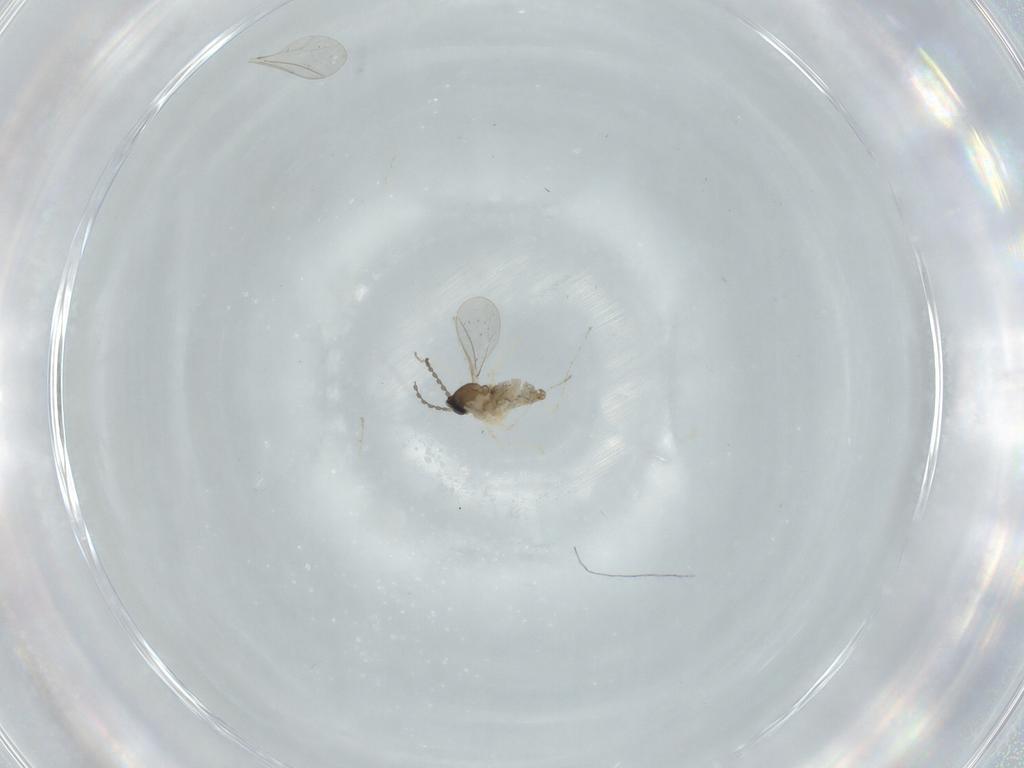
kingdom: Animalia
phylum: Arthropoda
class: Insecta
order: Diptera
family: Cecidomyiidae
